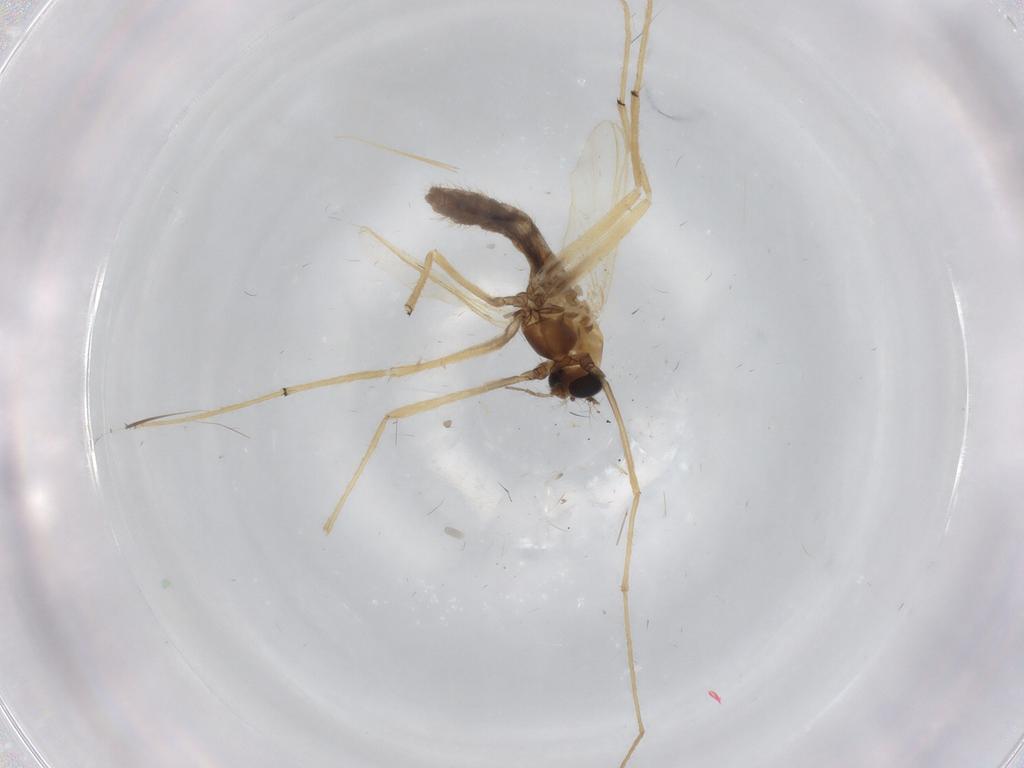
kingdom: Animalia
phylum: Arthropoda
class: Insecta
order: Diptera
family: Chironomidae
